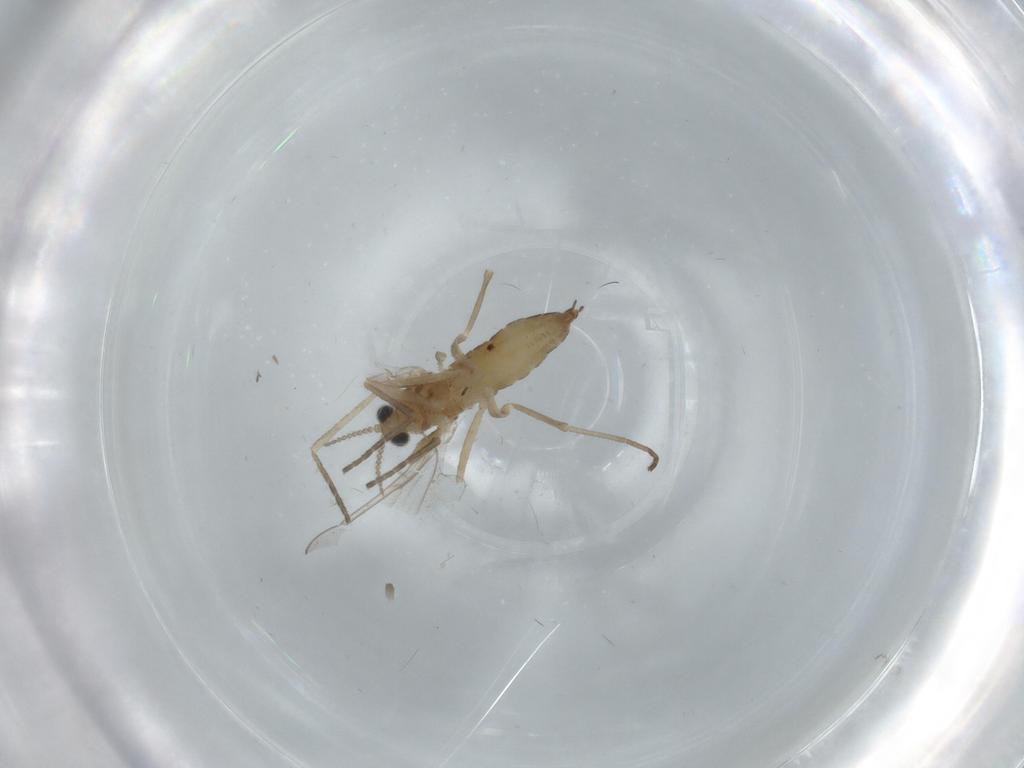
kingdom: Animalia
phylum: Arthropoda
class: Insecta
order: Diptera
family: Cecidomyiidae
